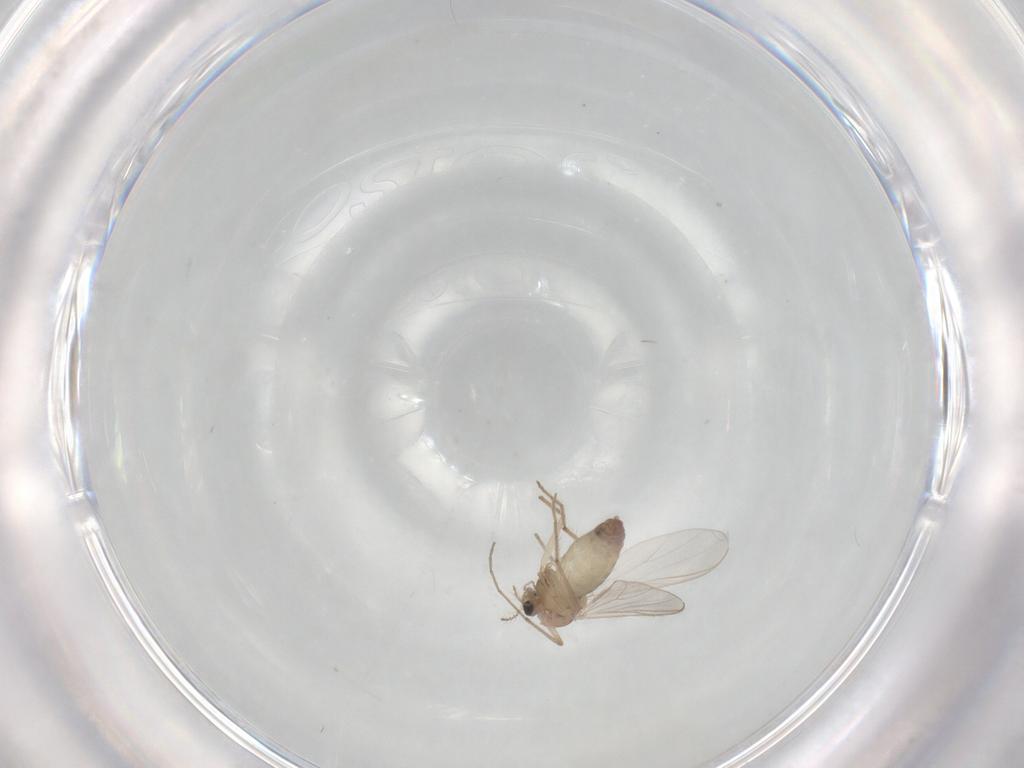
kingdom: Animalia
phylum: Arthropoda
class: Insecta
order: Diptera
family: Chironomidae
